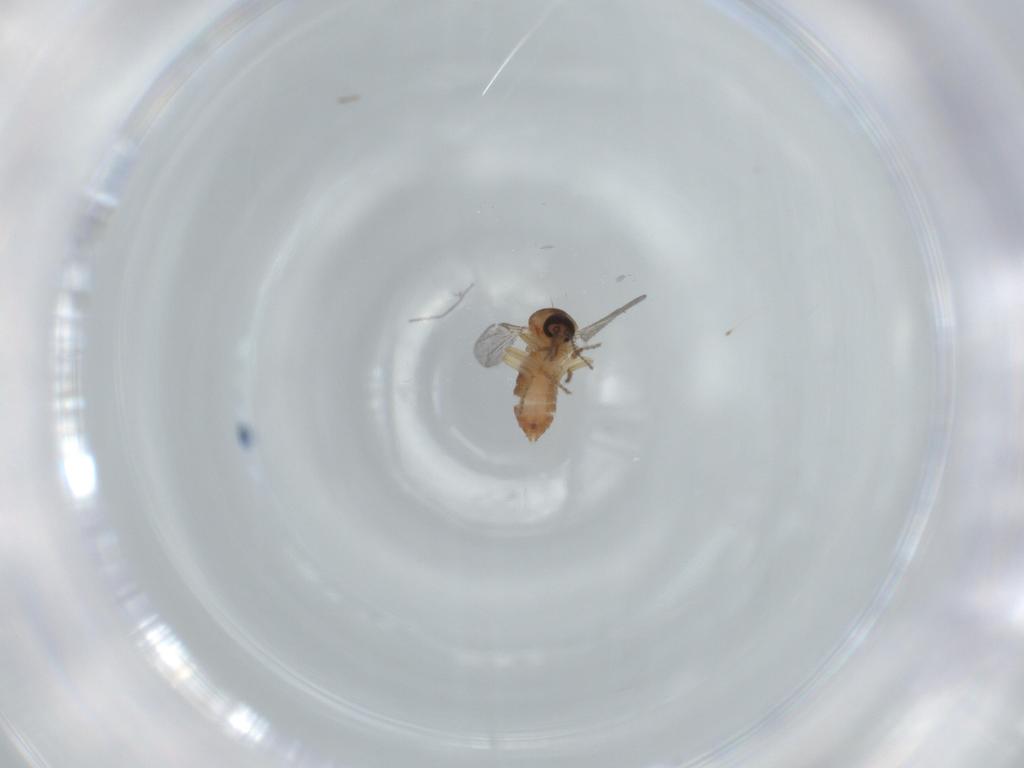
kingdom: Animalia
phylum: Arthropoda
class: Insecta
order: Diptera
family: Ceratopogonidae
